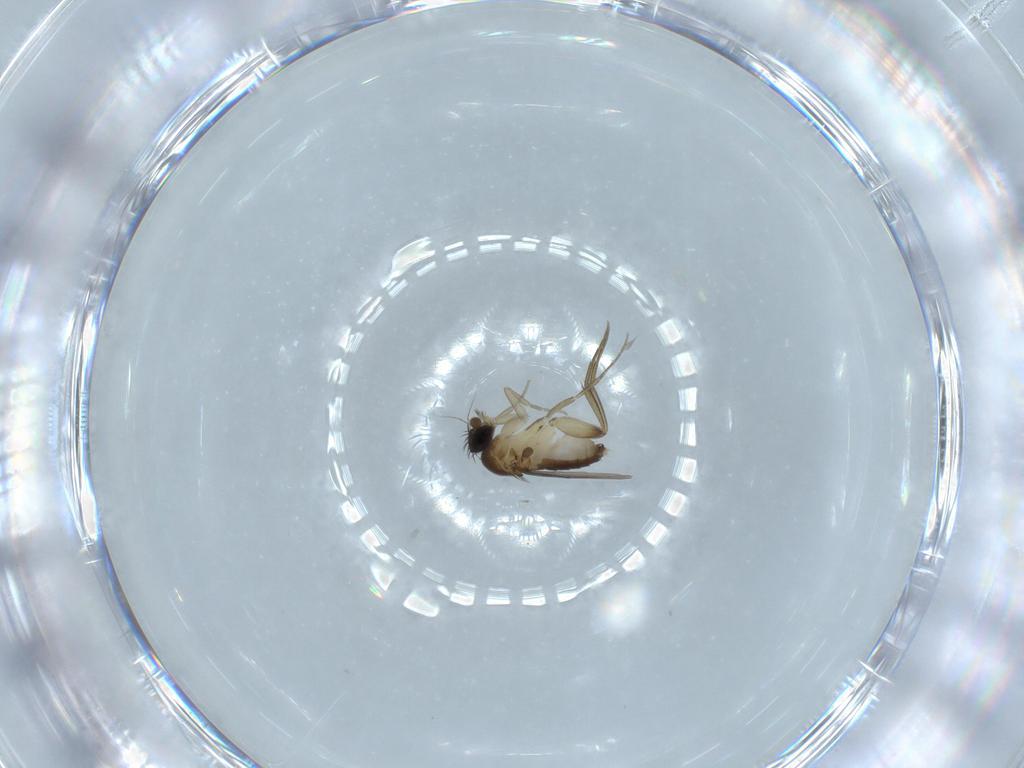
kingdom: Animalia
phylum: Arthropoda
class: Insecta
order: Diptera
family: Phoridae
